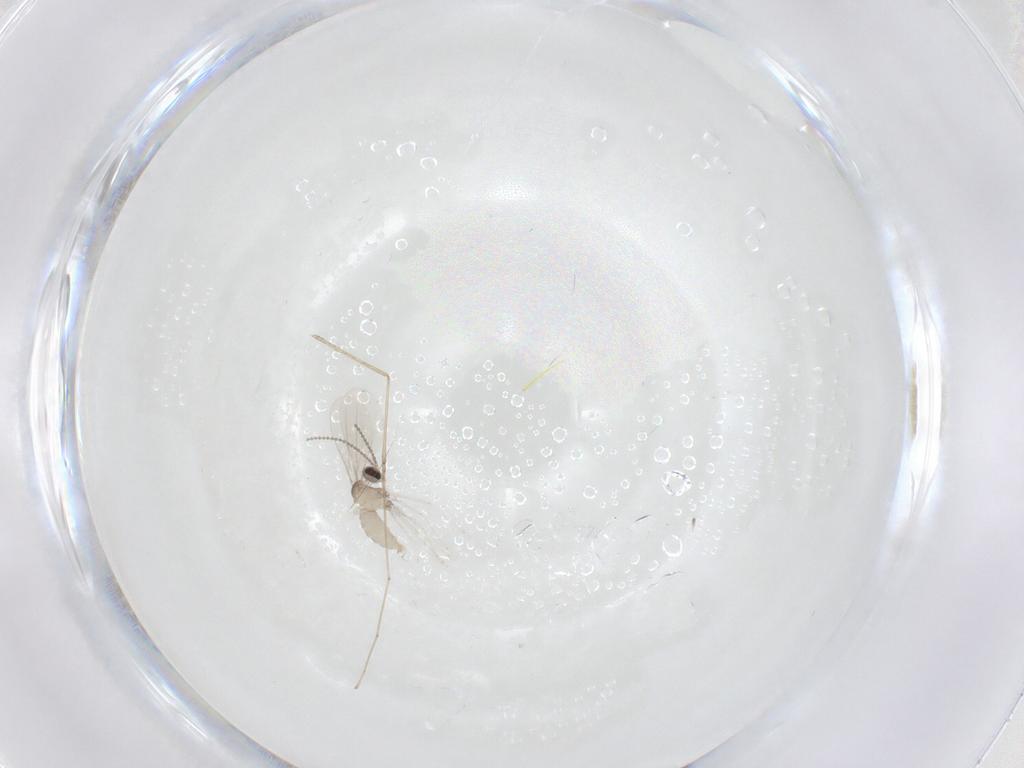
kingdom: Animalia
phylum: Arthropoda
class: Insecta
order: Diptera
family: Cecidomyiidae
